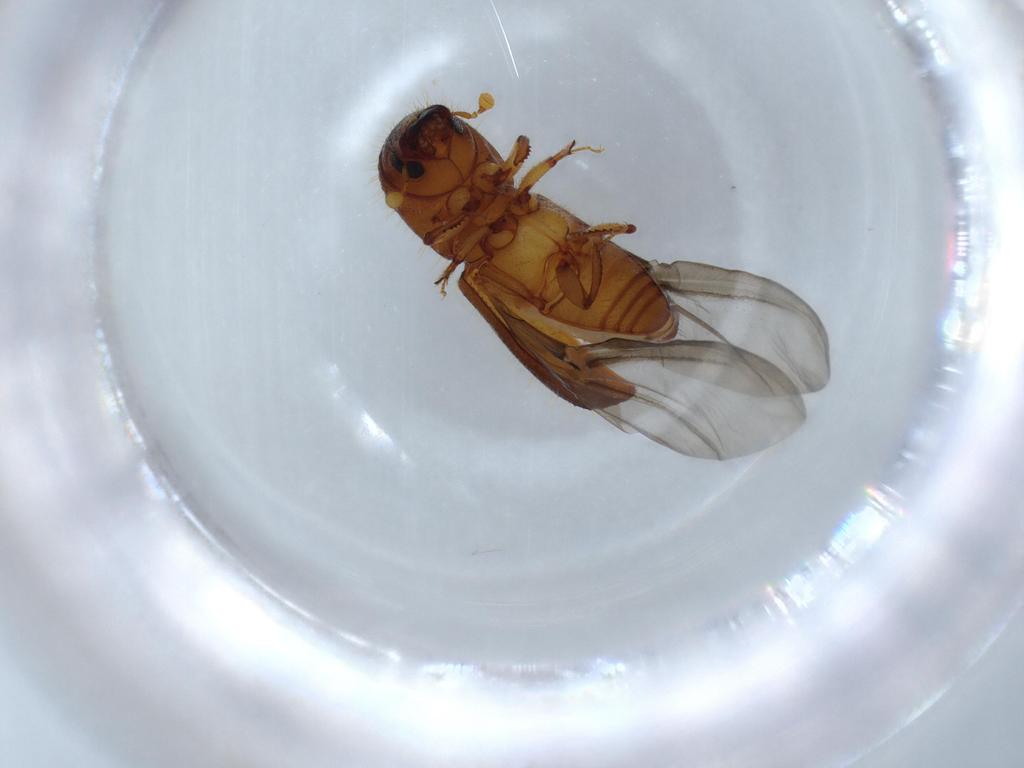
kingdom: Animalia
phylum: Arthropoda
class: Insecta
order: Coleoptera
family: Curculionidae
